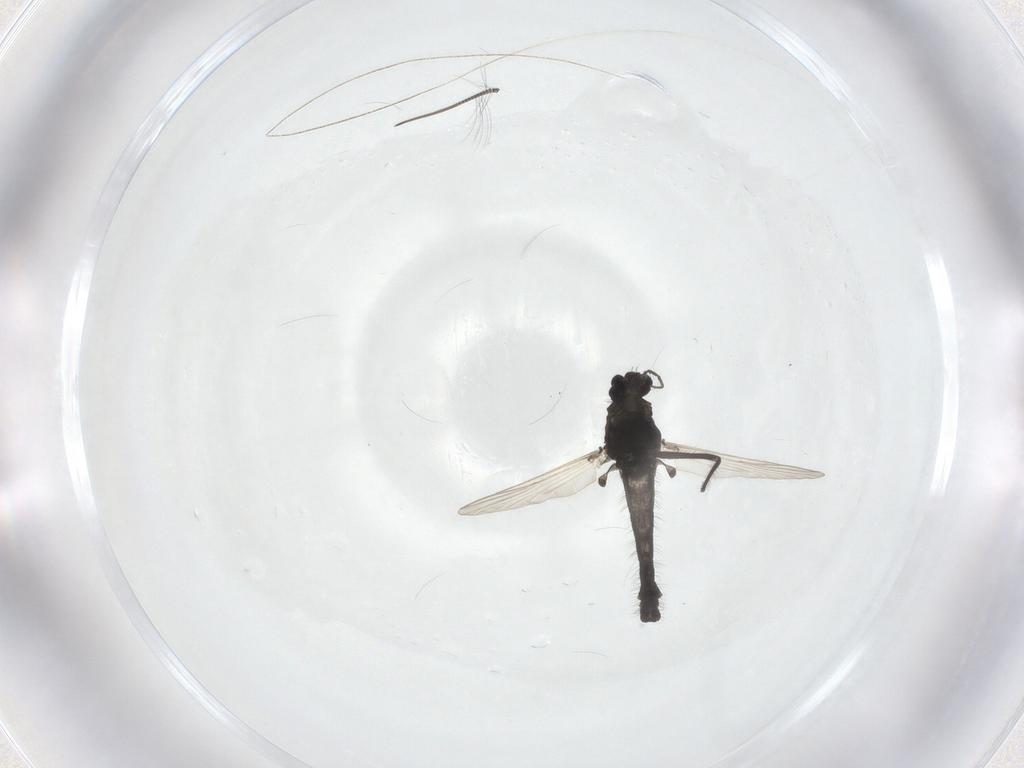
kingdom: Animalia
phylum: Arthropoda
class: Insecta
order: Diptera
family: Chironomidae
